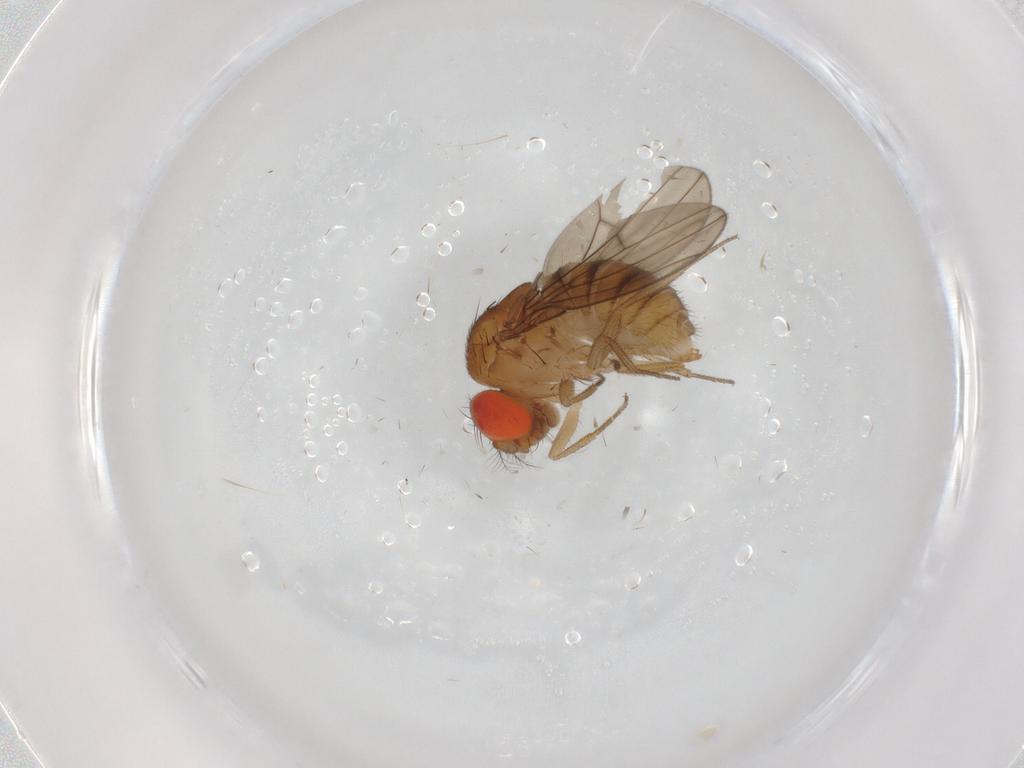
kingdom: Animalia
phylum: Arthropoda
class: Insecta
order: Diptera
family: Drosophilidae
